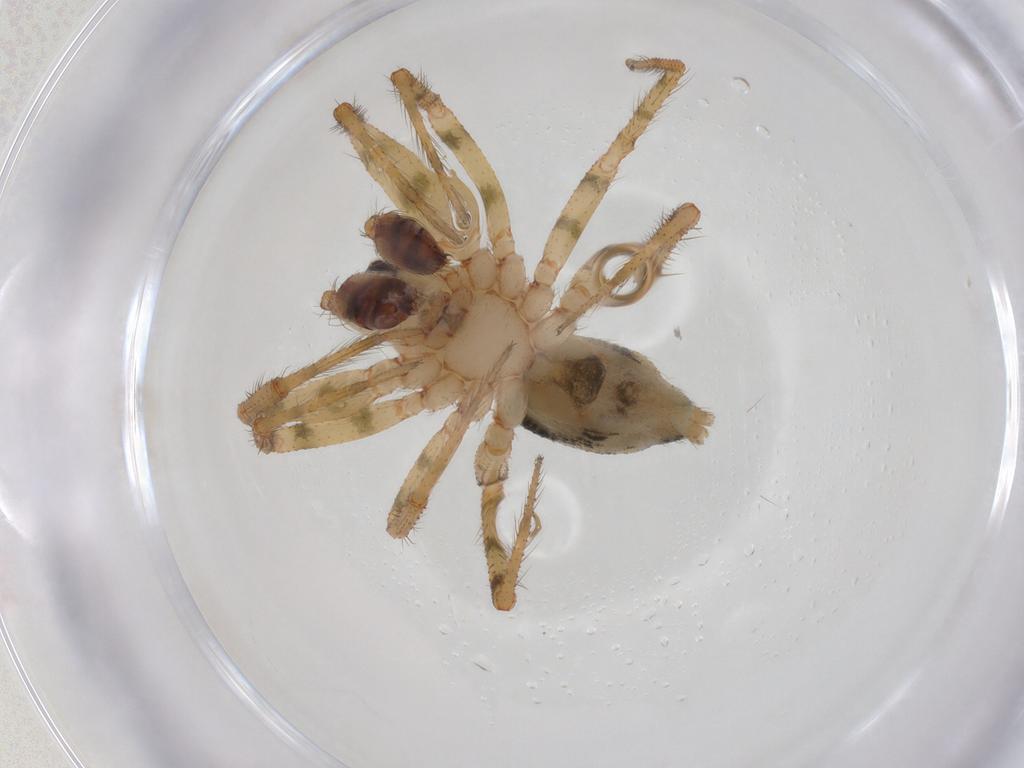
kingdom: Animalia
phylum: Arthropoda
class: Arachnida
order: Araneae
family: Theridiidae
